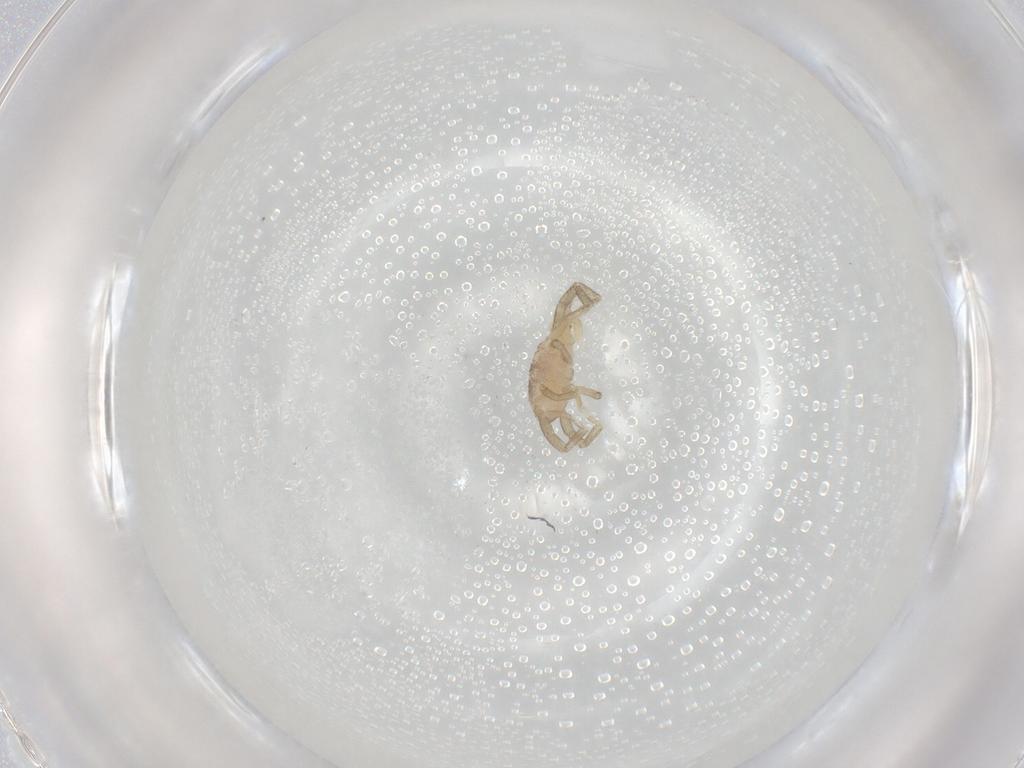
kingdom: Animalia
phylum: Arthropoda
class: Arachnida
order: Trombidiformes
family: Erythraeidae
